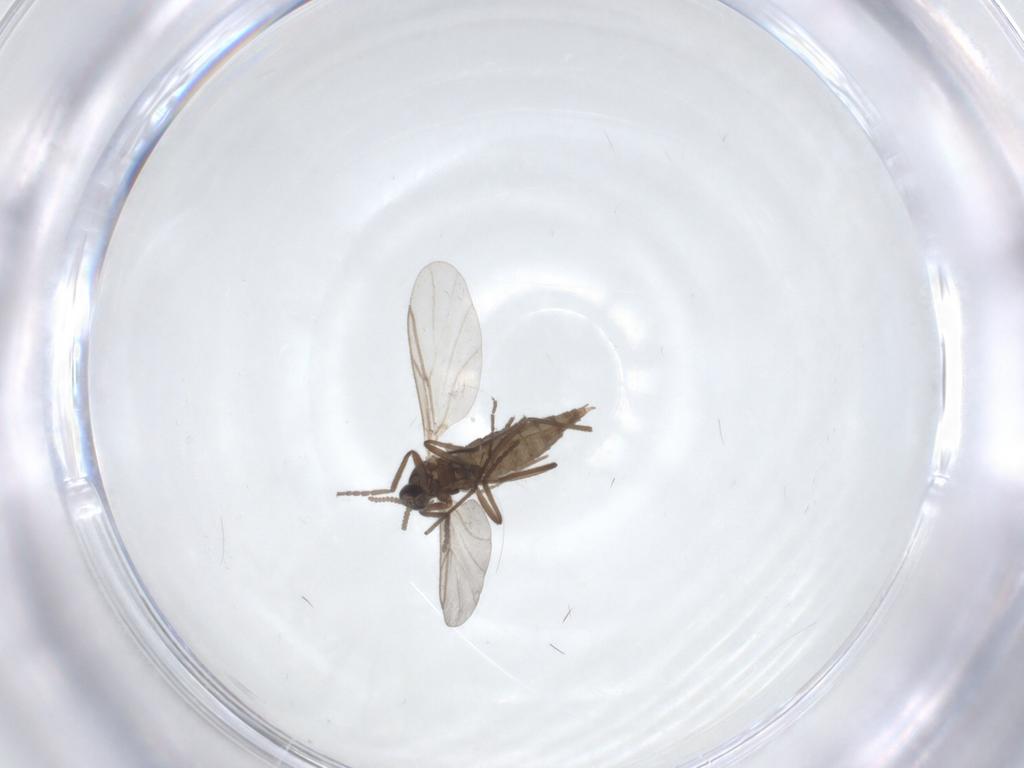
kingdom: Animalia
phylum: Arthropoda
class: Insecta
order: Diptera
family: Cecidomyiidae
